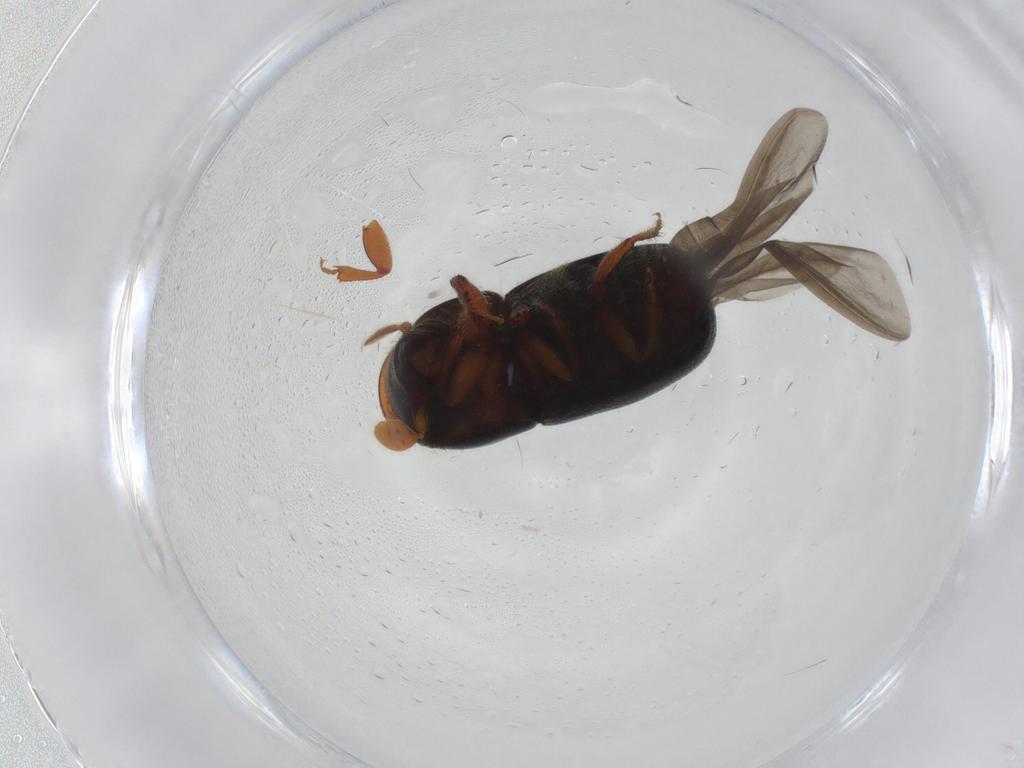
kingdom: Animalia
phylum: Arthropoda
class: Insecta
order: Coleoptera
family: Curculionidae
